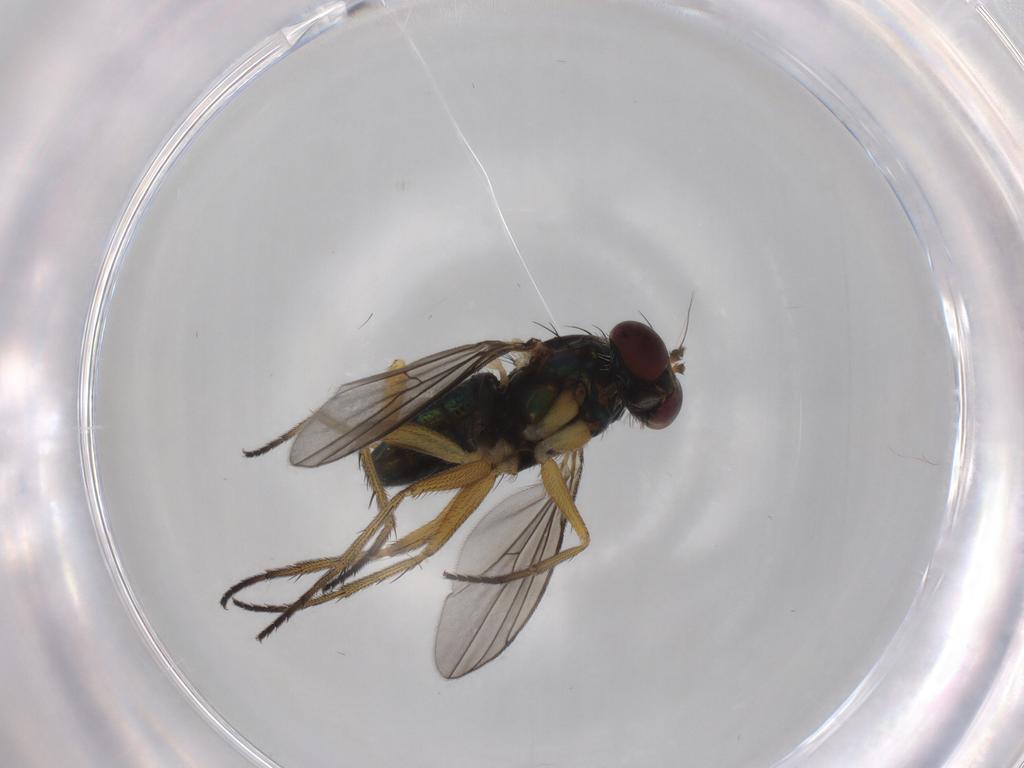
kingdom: Animalia
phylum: Arthropoda
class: Insecta
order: Diptera
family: Dolichopodidae
